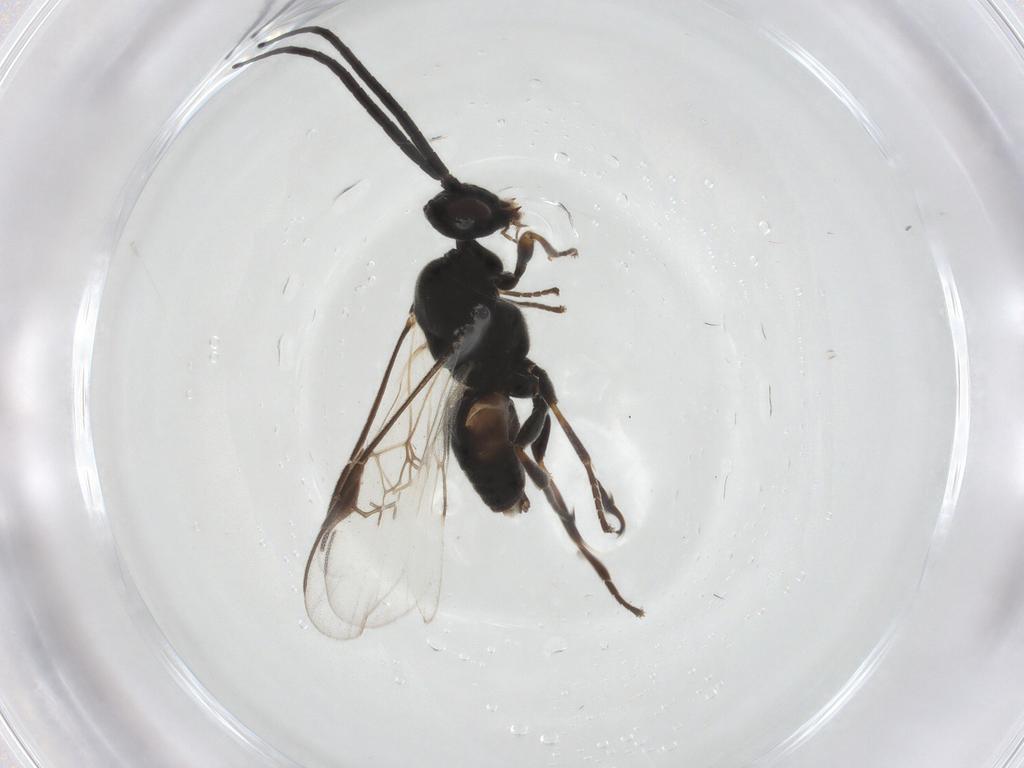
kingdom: Animalia
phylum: Arthropoda
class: Insecta
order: Hymenoptera
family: Braconidae
